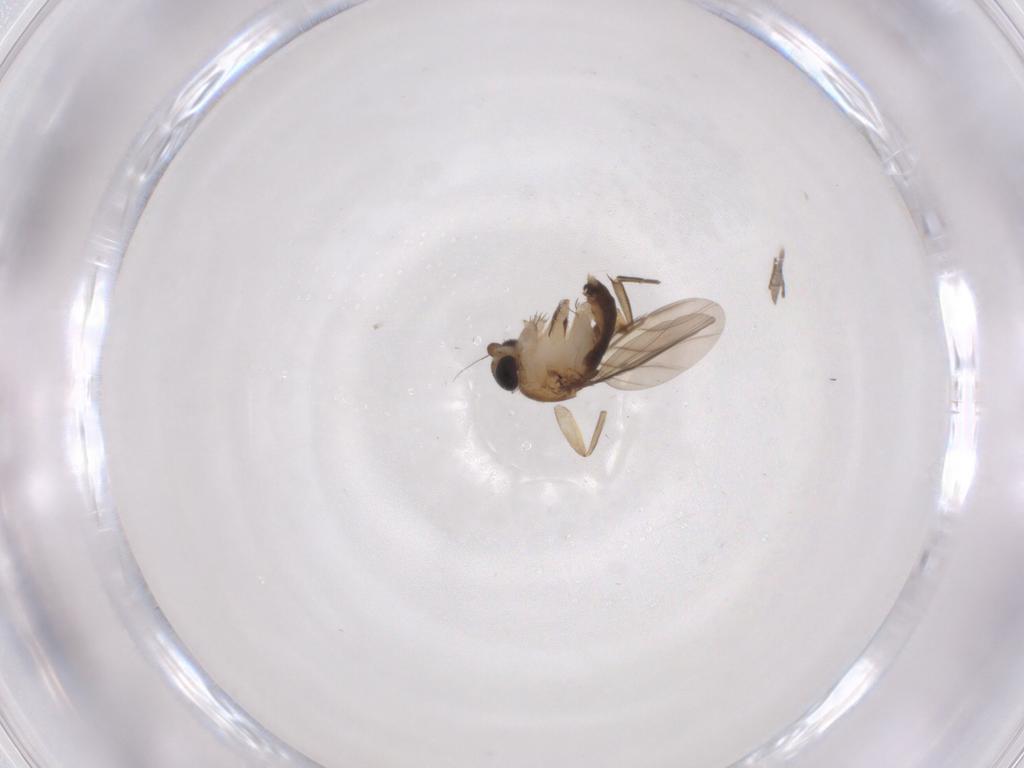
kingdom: Animalia
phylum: Arthropoda
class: Insecta
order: Diptera
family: Phoridae
